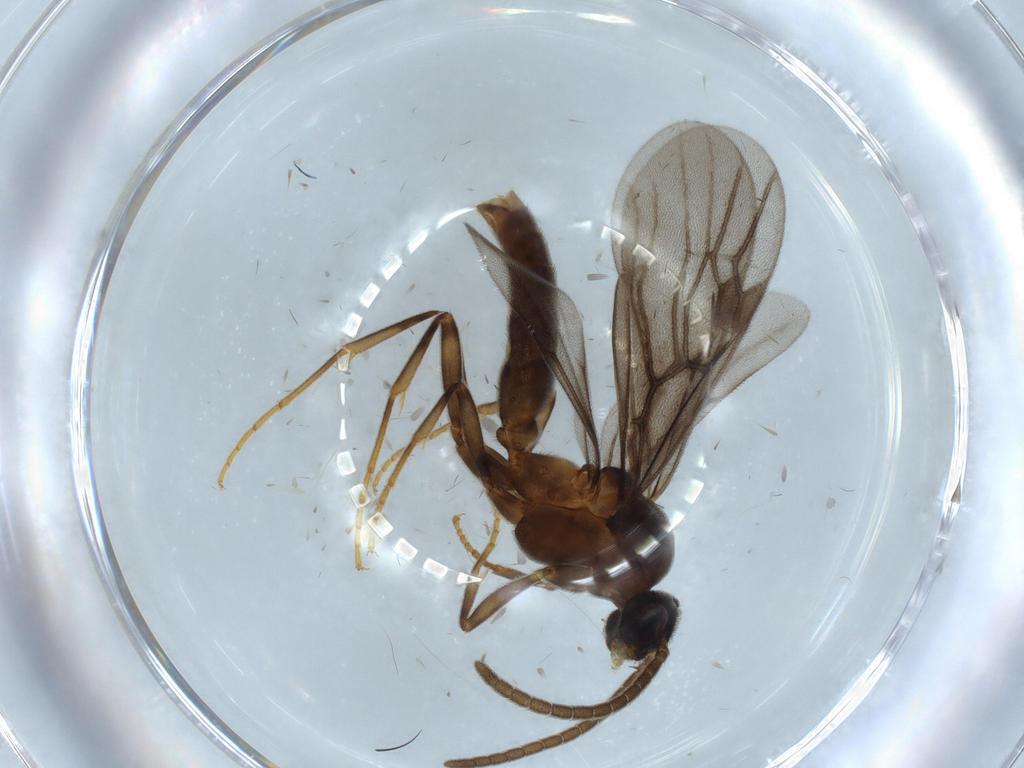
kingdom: Animalia
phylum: Arthropoda
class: Insecta
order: Hymenoptera
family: Formicidae
